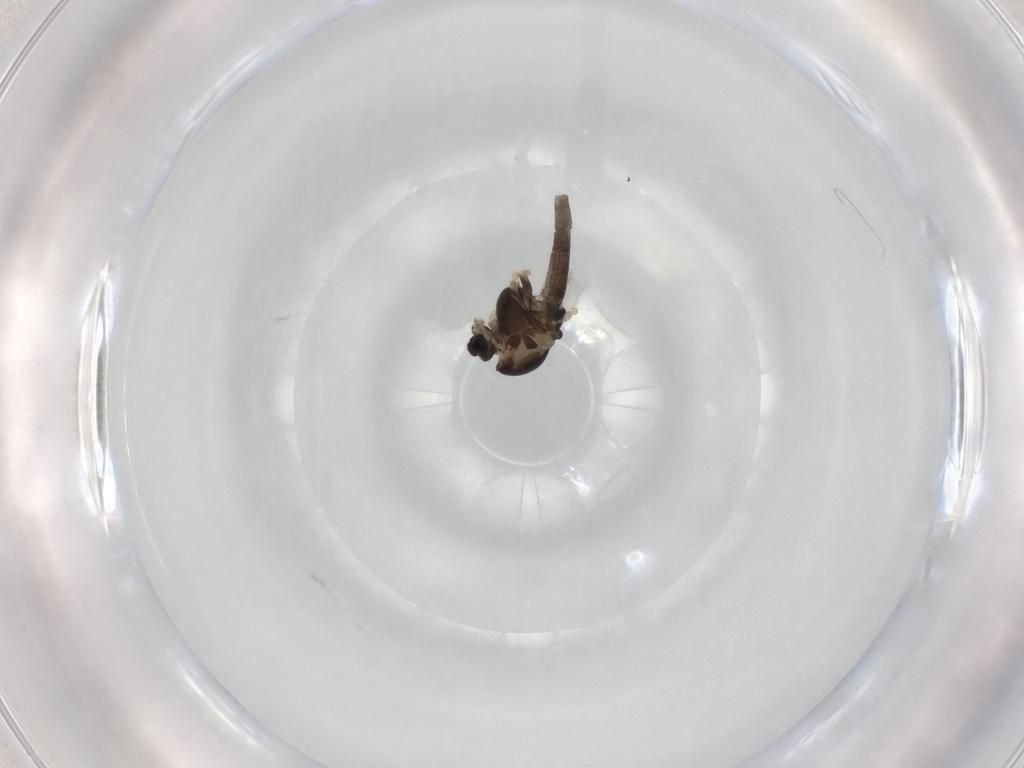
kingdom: Animalia
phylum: Arthropoda
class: Insecta
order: Diptera
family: Chironomidae
